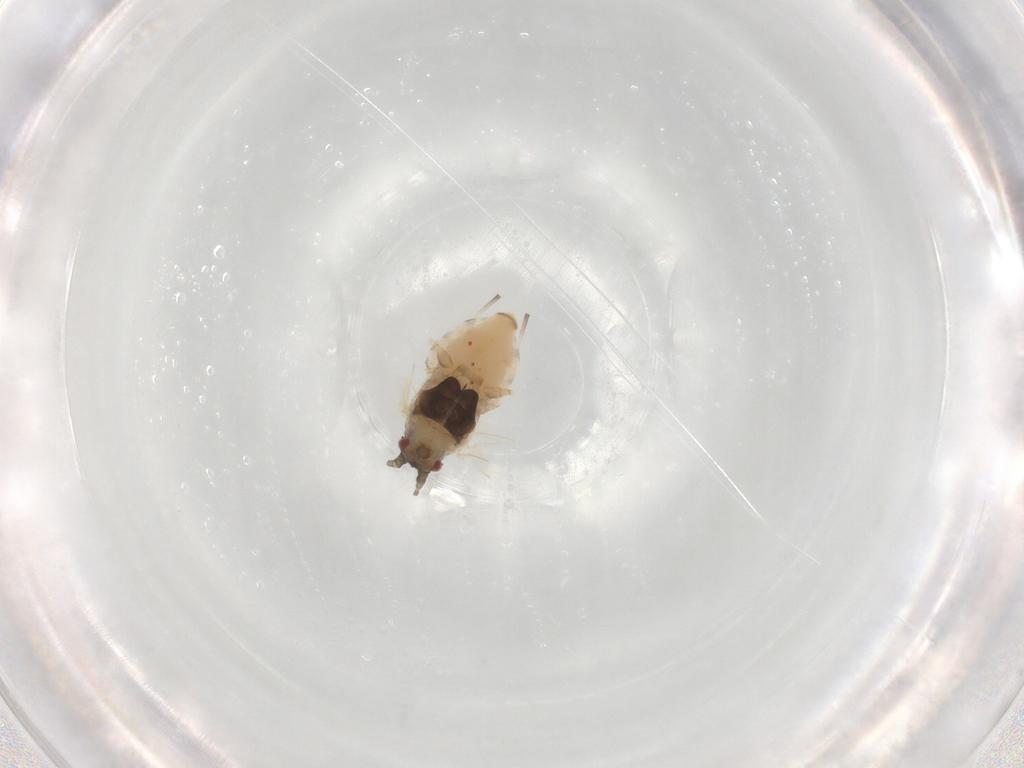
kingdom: Animalia
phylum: Arthropoda
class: Insecta
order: Hemiptera
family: Aphididae
